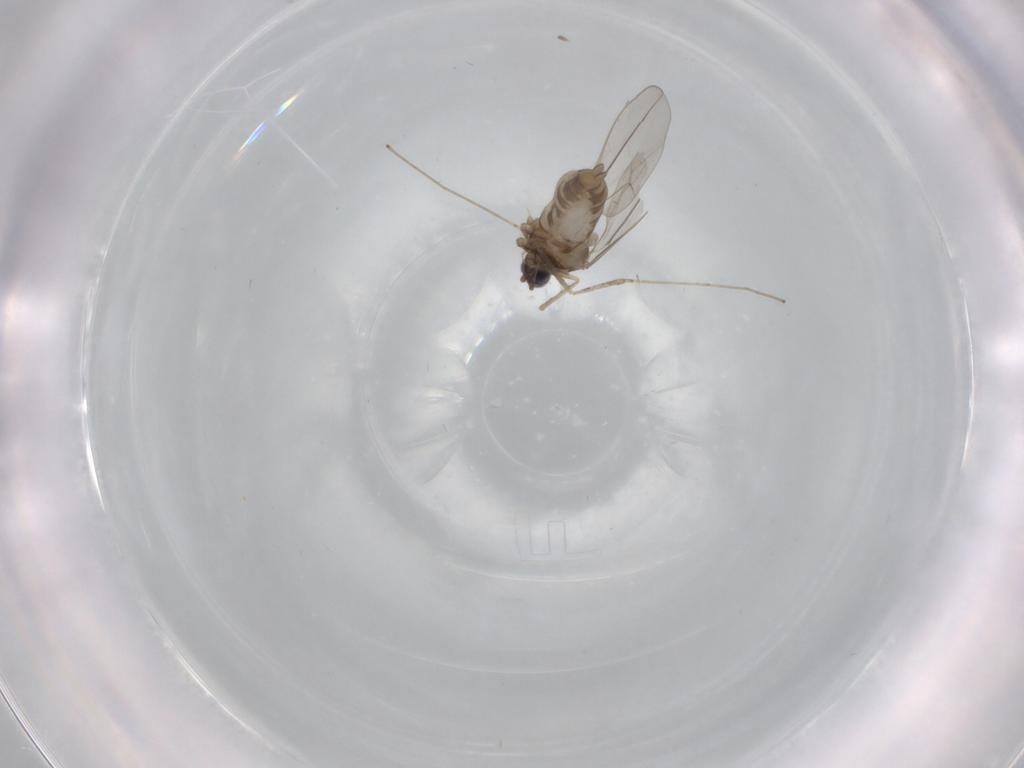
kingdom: Animalia
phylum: Arthropoda
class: Insecta
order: Diptera
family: Cecidomyiidae
